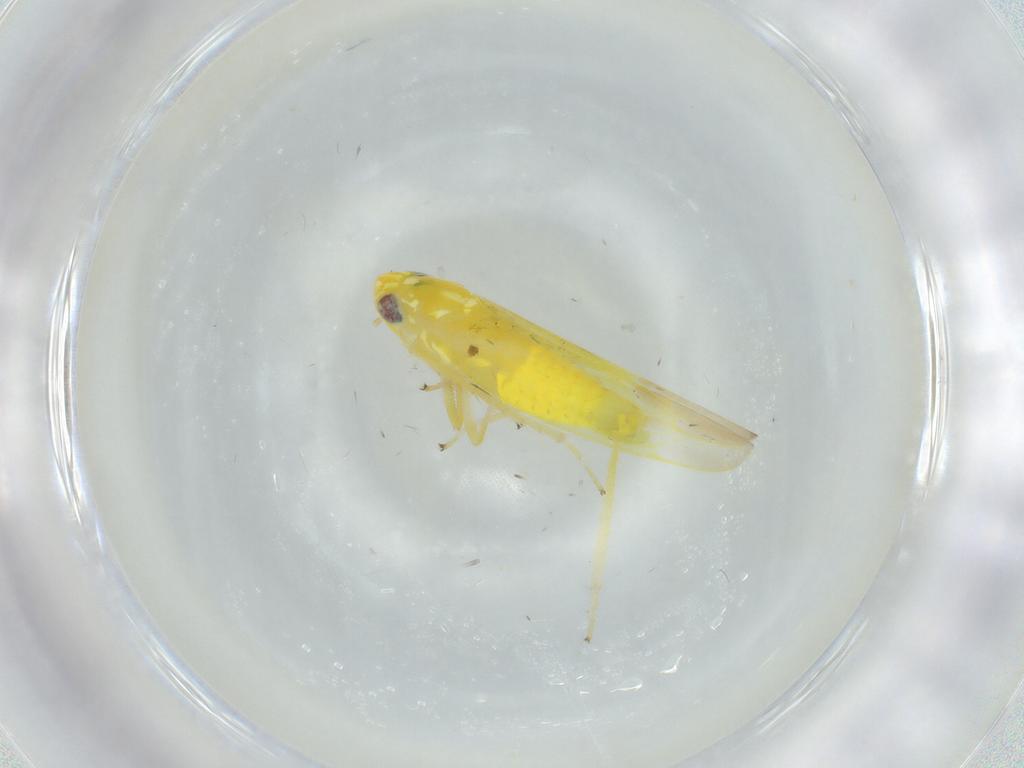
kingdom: Animalia
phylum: Arthropoda
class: Insecta
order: Hemiptera
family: Cicadellidae
